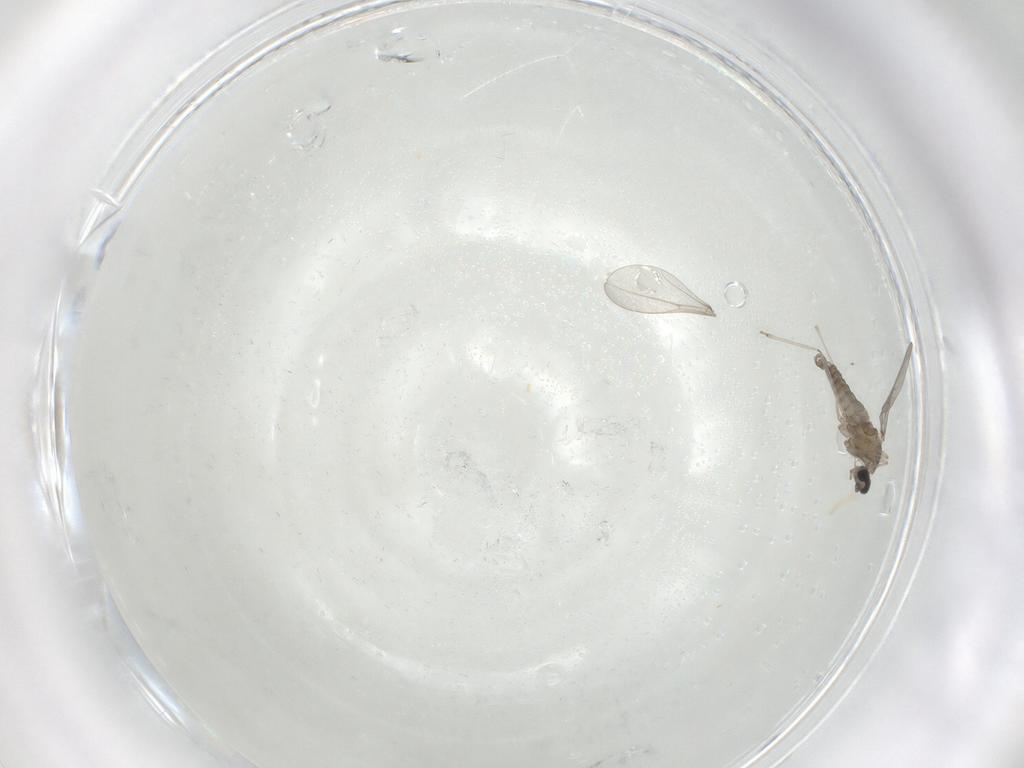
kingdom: Animalia
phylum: Arthropoda
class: Insecta
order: Diptera
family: Cecidomyiidae
